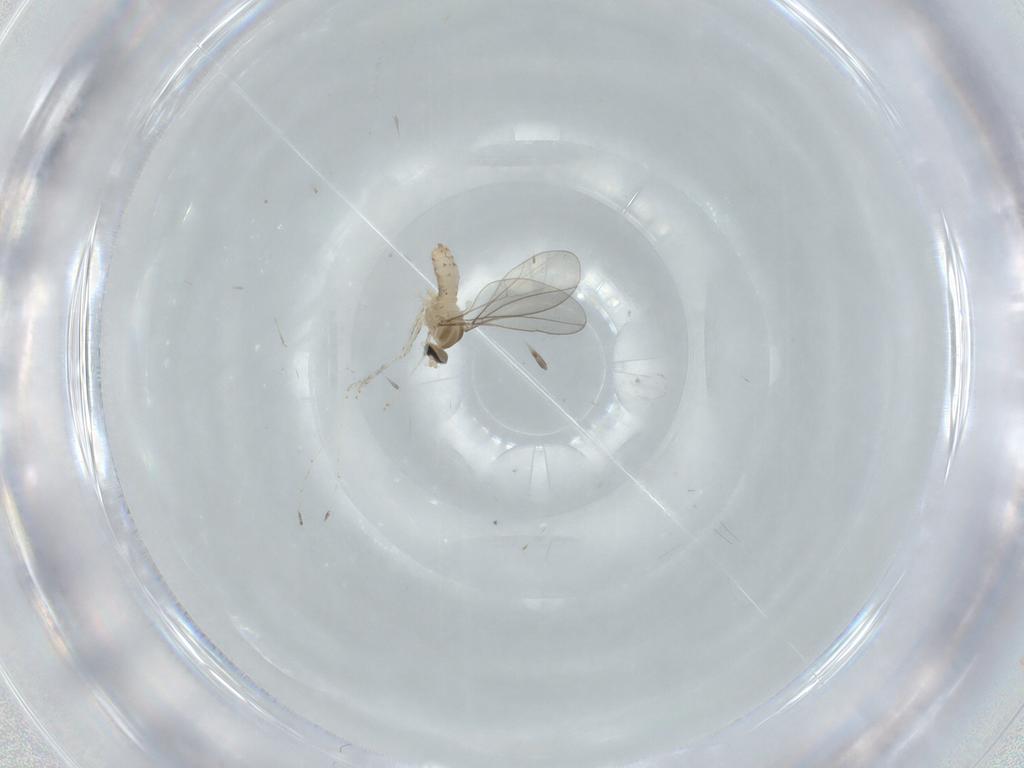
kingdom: Animalia
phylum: Arthropoda
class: Insecta
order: Diptera
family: Cecidomyiidae
